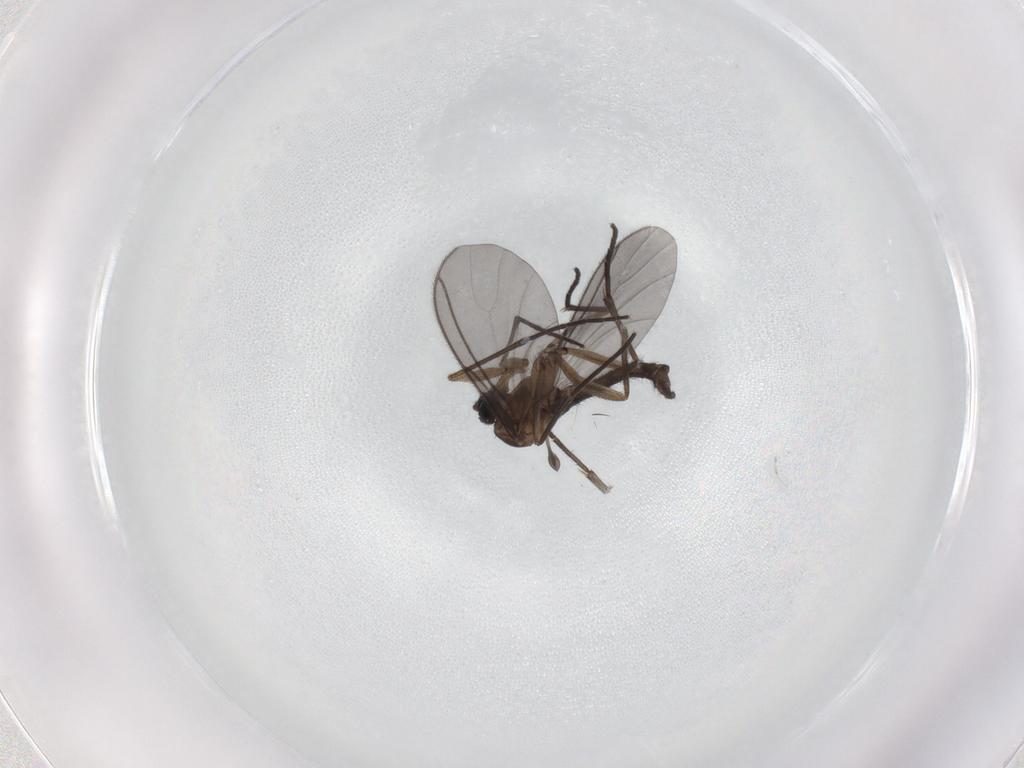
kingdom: Animalia
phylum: Arthropoda
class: Insecta
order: Diptera
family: Sciaridae
